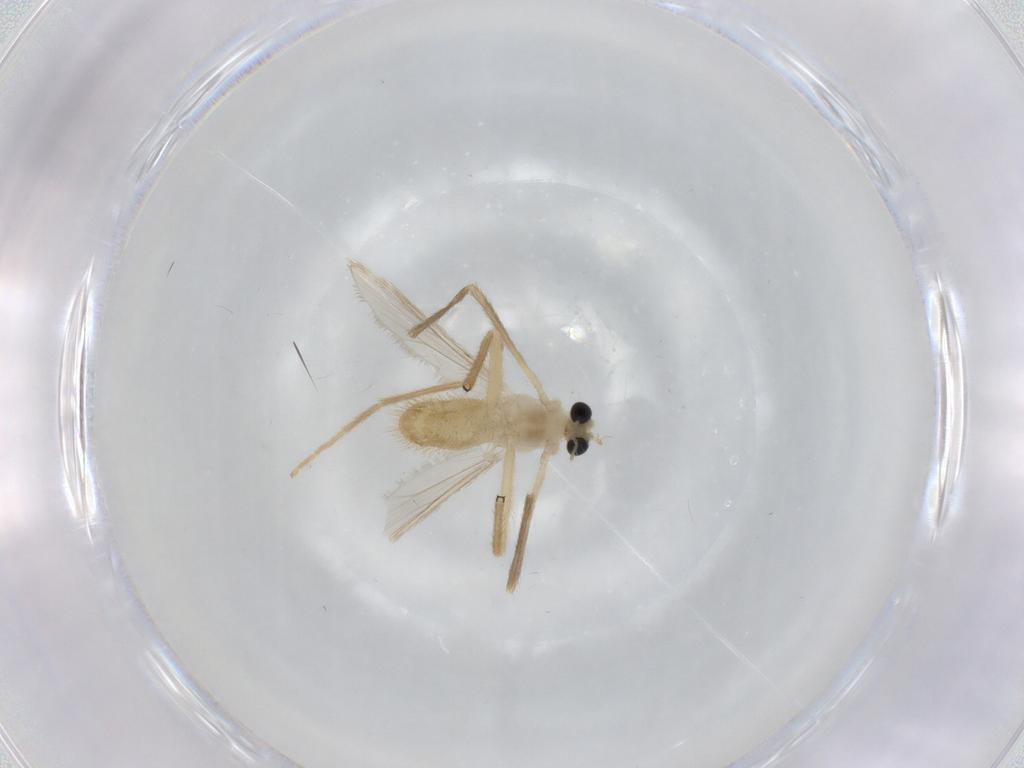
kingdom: Animalia
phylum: Arthropoda
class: Insecta
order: Diptera
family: Chironomidae
